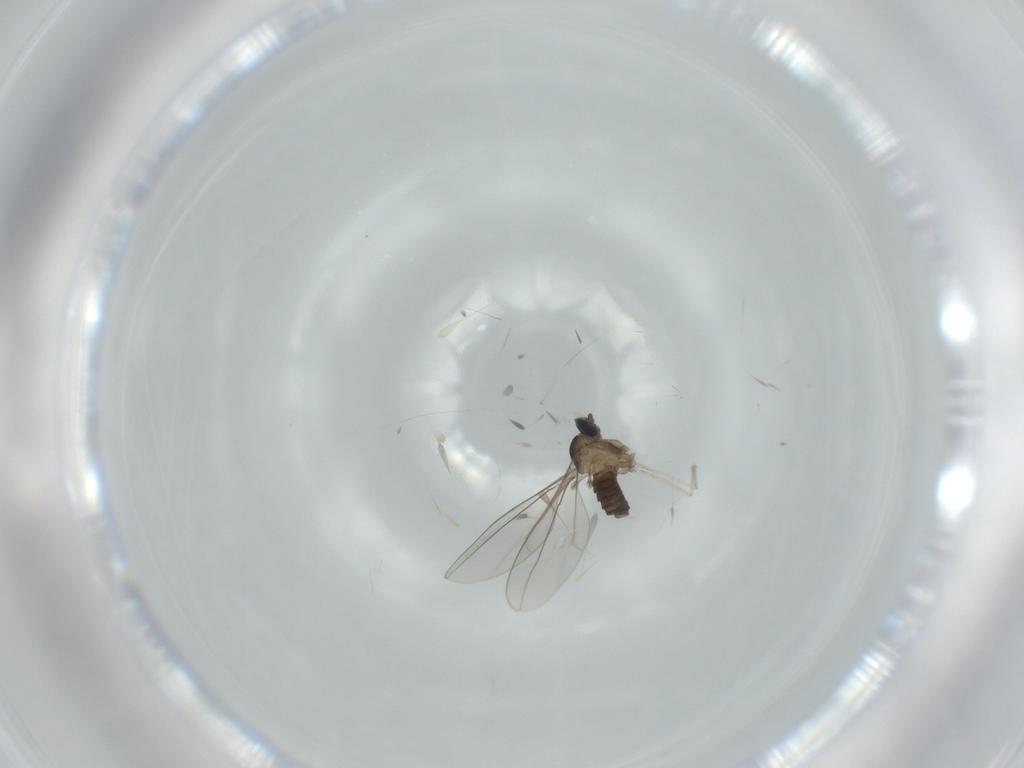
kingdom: Animalia
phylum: Arthropoda
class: Insecta
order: Diptera
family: Cecidomyiidae
